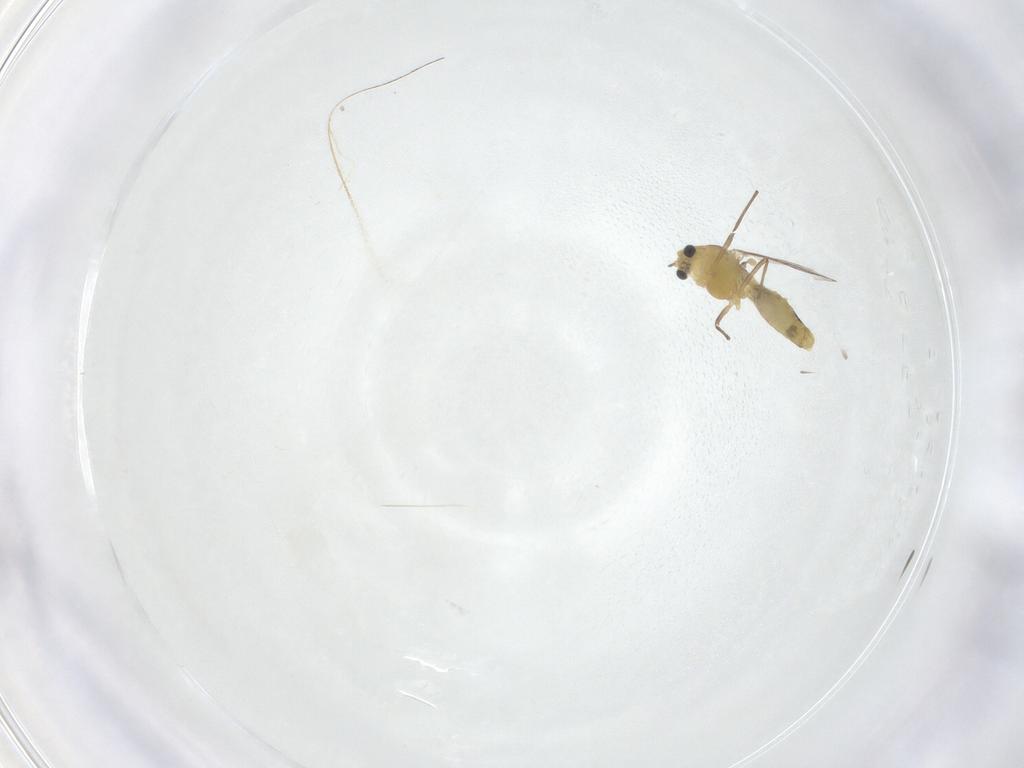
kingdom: Animalia
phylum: Arthropoda
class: Insecta
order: Diptera
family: Chironomidae
